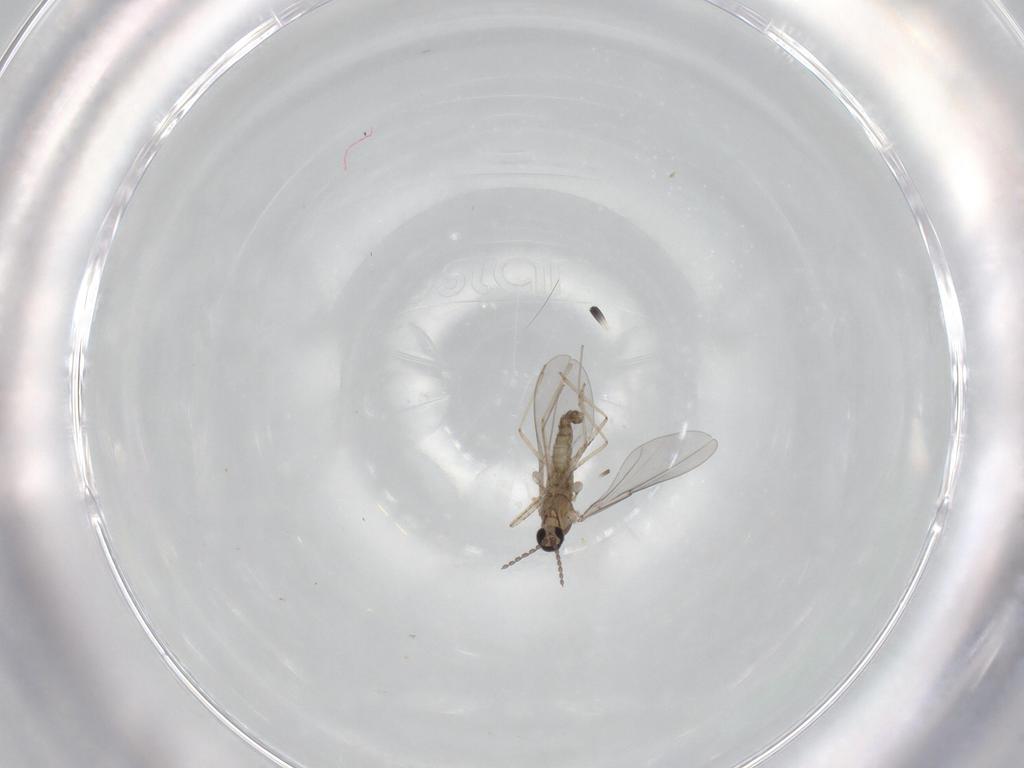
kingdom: Animalia
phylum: Arthropoda
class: Insecta
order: Diptera
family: Cecidomyiidae
